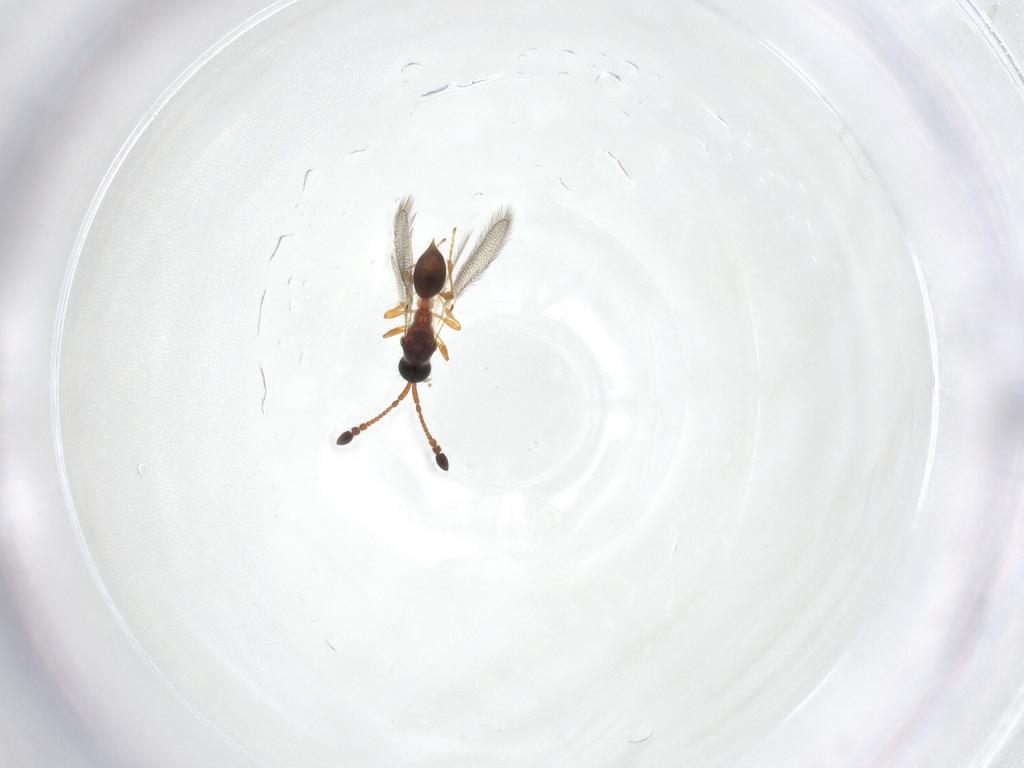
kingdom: Animalia
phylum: Arthropoda
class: Insecta
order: Hymenoptera
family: Diapriidae
